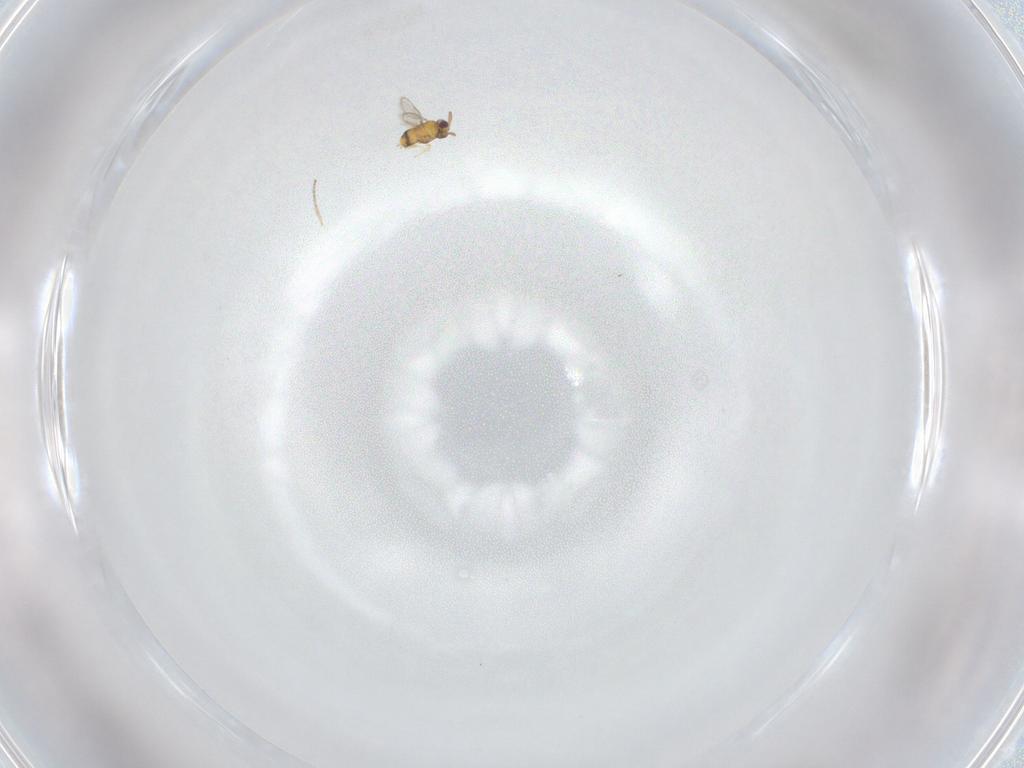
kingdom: Animalia
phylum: Arthropoda
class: Insecta
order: Hymenoptera
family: Aphelinidae
